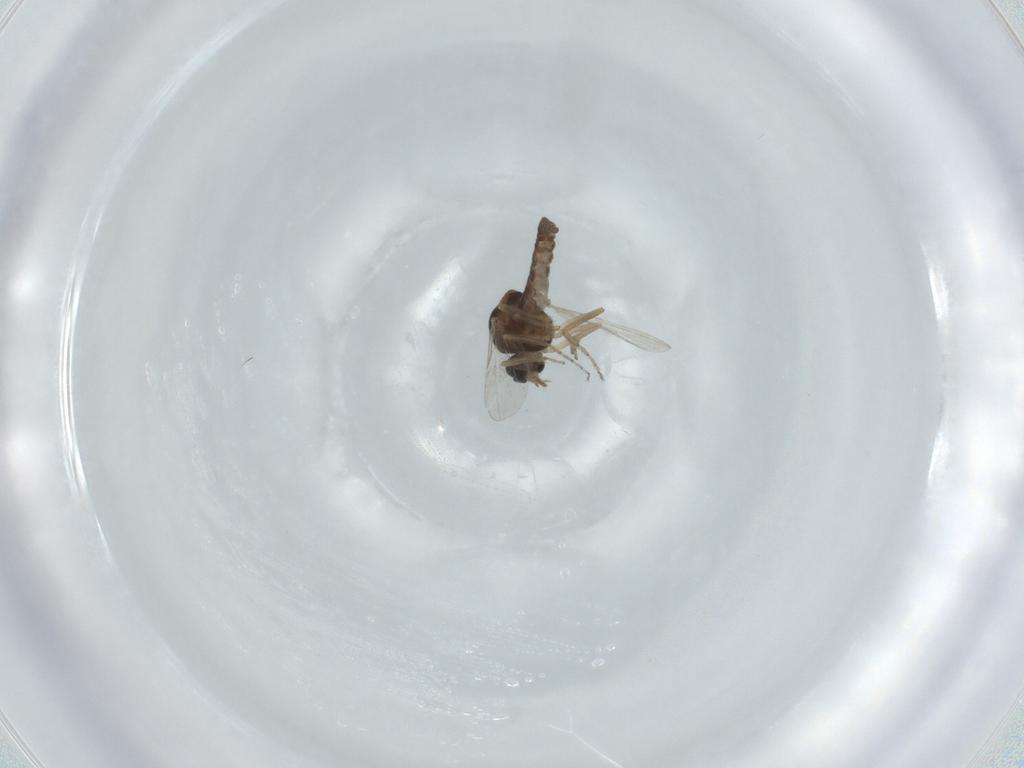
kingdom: Animalia
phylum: Arthropoda
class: Insecta
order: Diptera
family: Ceratopogonidae
